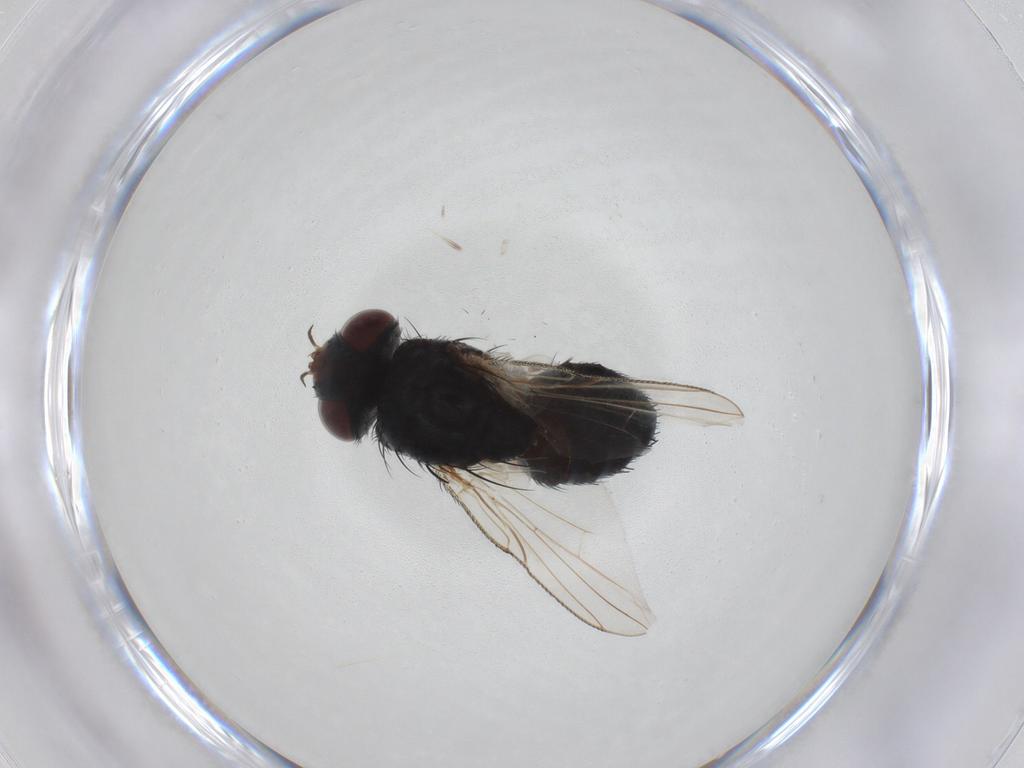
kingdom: Animalia
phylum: Arthropoda
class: Insecta
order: Diptera
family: Tachinidae
